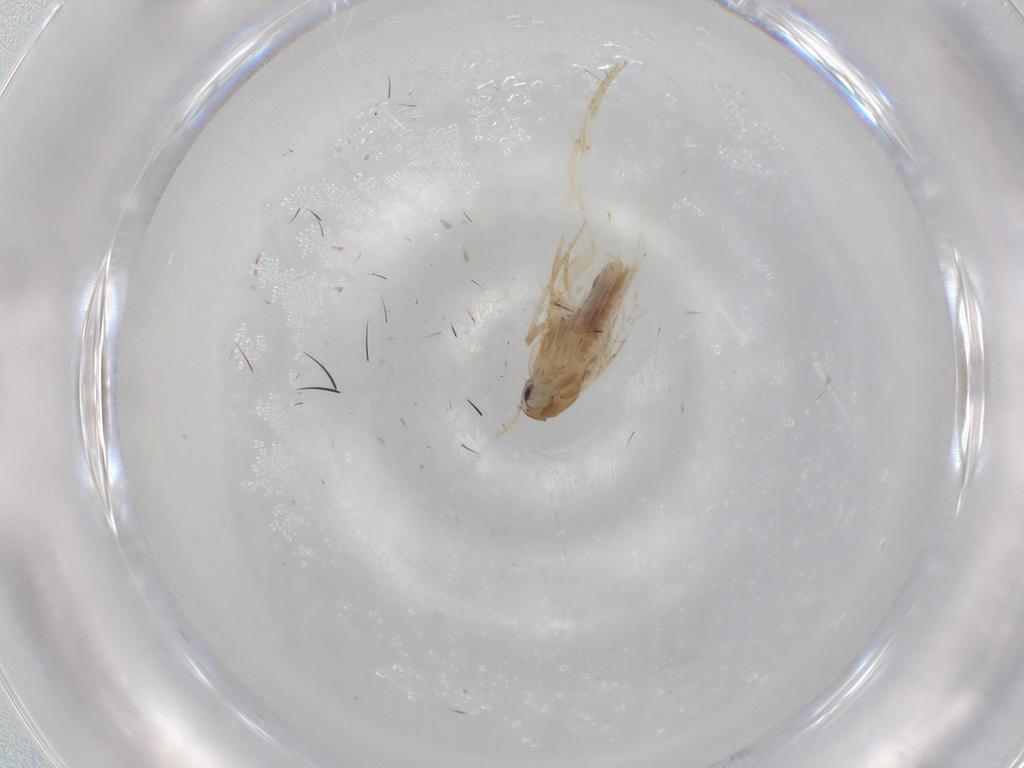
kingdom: Animalia
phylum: Arthropoda
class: Insecta
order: Lepidoptera
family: Cosmopterigidae
